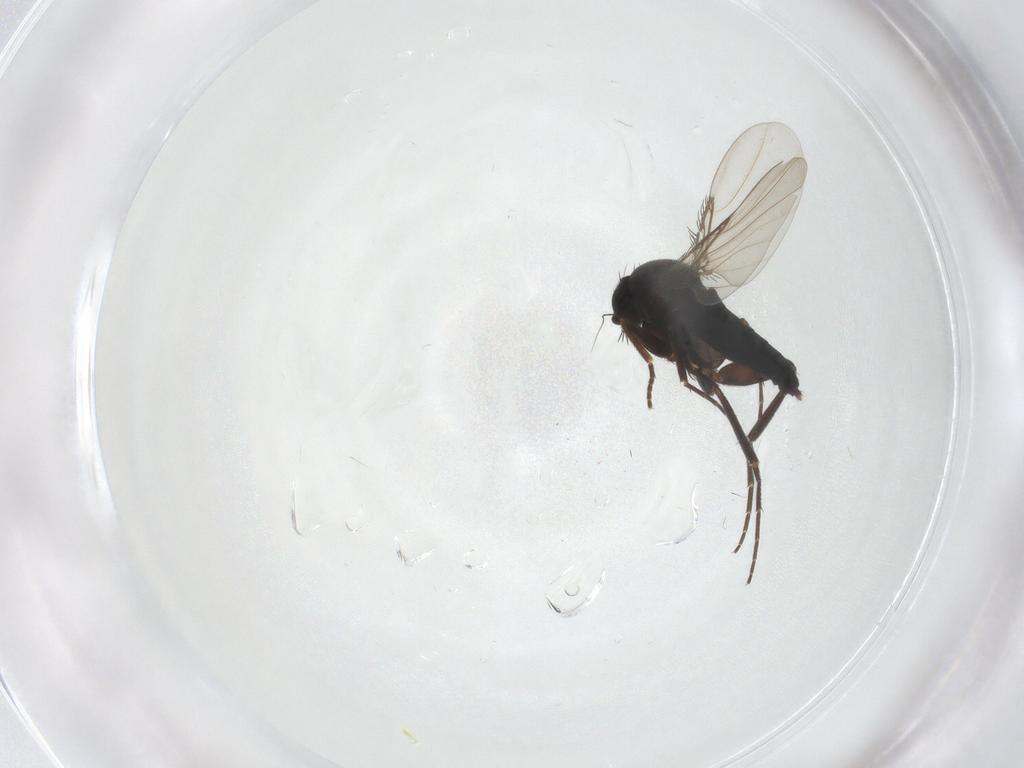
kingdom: Animalia
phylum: Arthropoda
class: Insecta
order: Diptera
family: Phoridae
